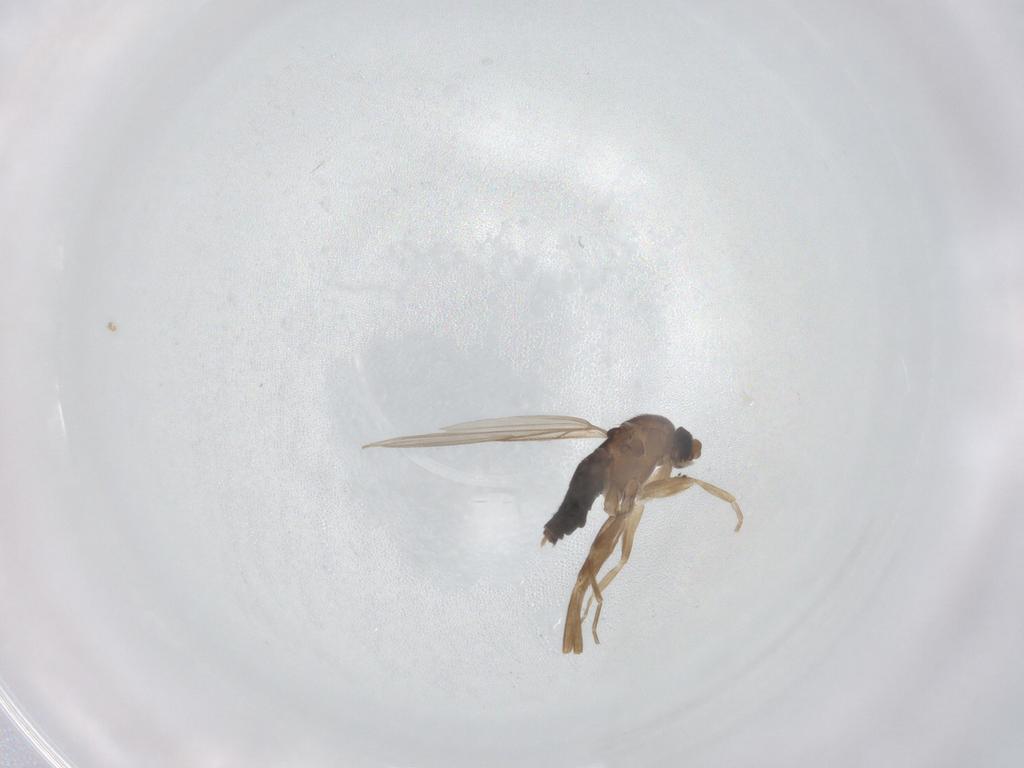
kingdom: Animalia
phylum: Arthropoda
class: Insecta
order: Diptera
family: Phoridae
